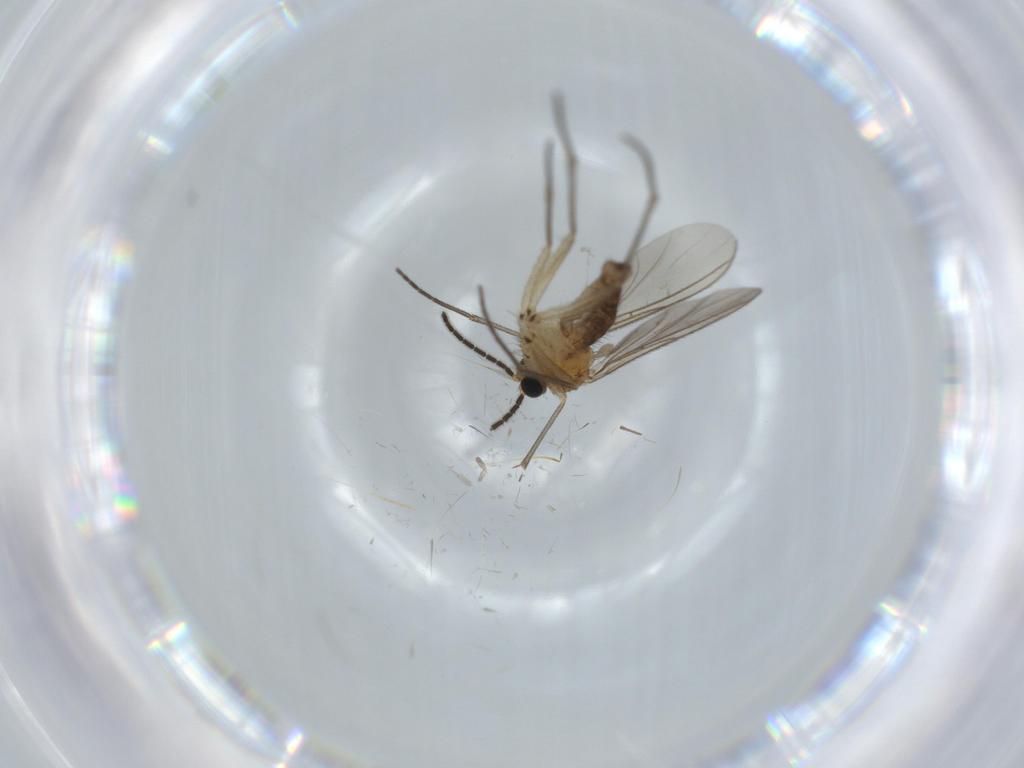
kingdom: Animalia
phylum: Arthropoda
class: Insecta
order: Diptera
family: Sciaridae
